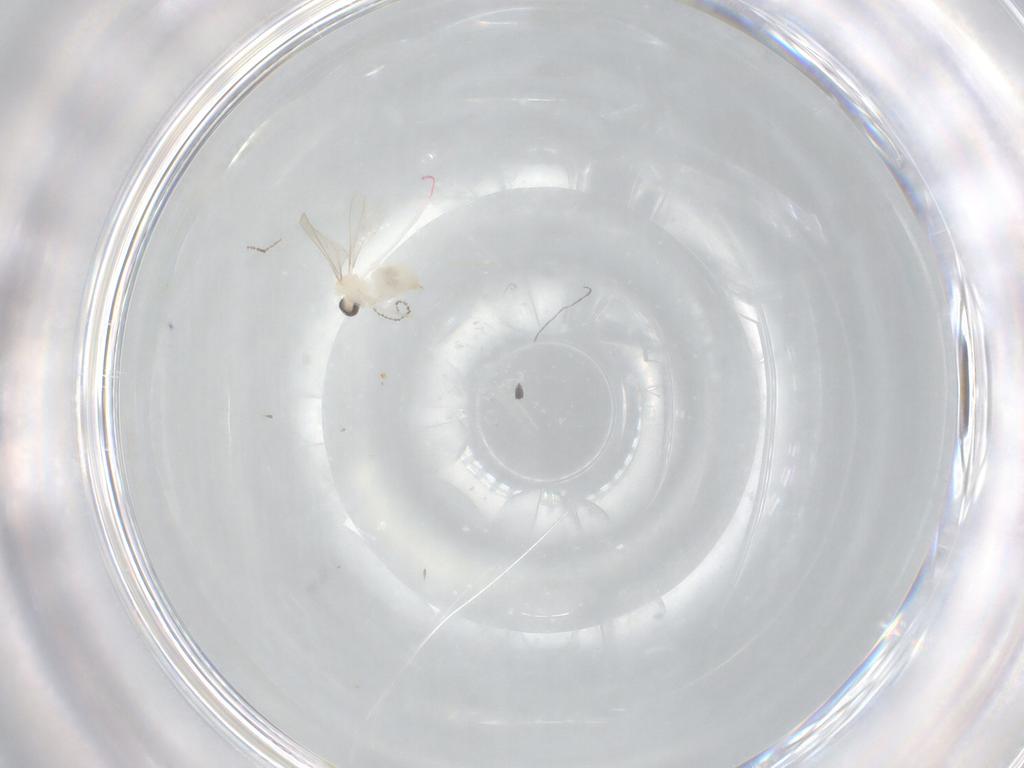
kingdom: Animalia
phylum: Arthropoda
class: Insecta
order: Diptera
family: Cecidomyiidae
